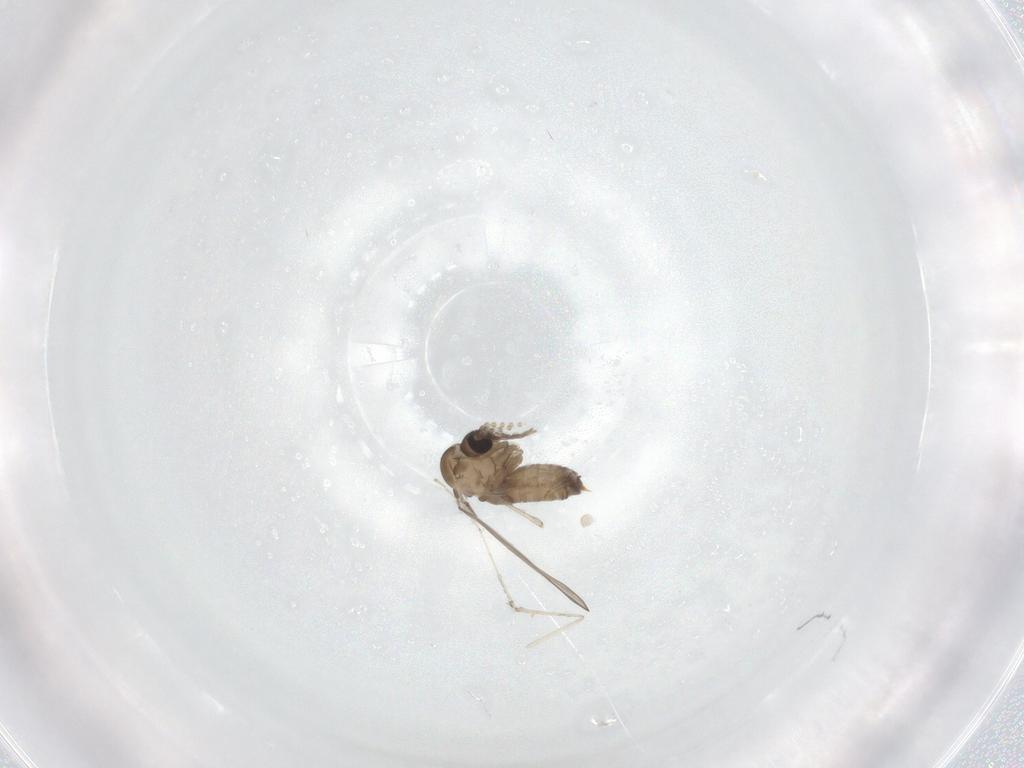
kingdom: Animalia
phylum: Arthropoda
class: Insecta
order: Diptera
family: Psychodidae
